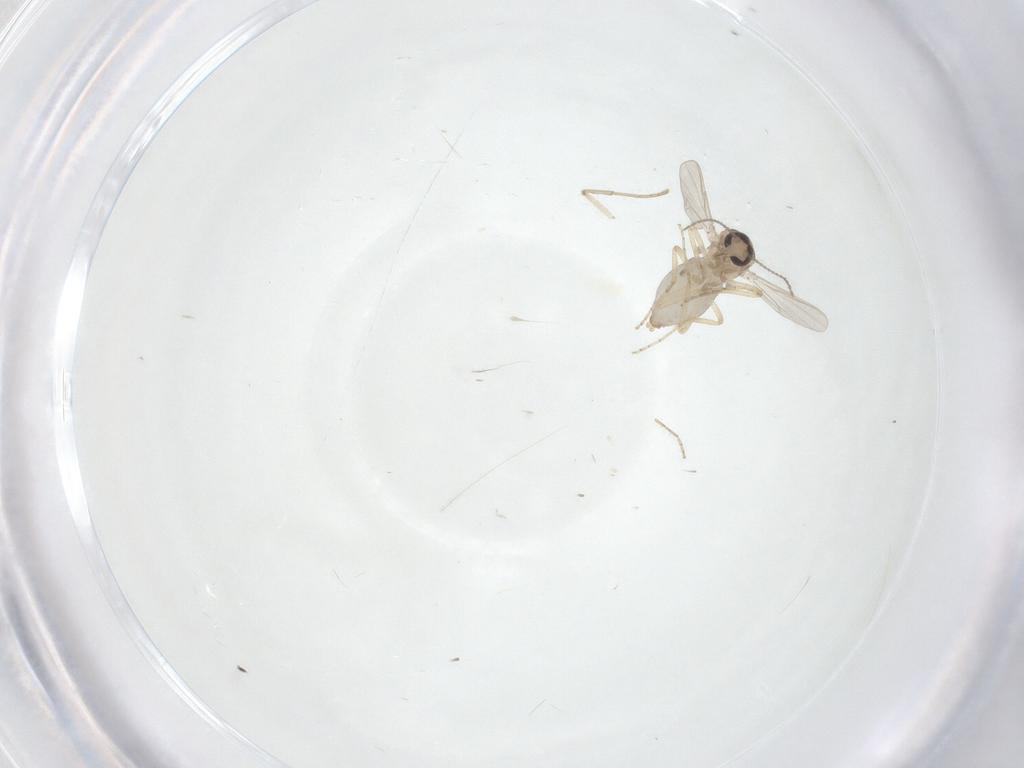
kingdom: Animalia
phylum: Arthropoda
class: Insecta
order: Diptera
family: Ceratopogonidae
